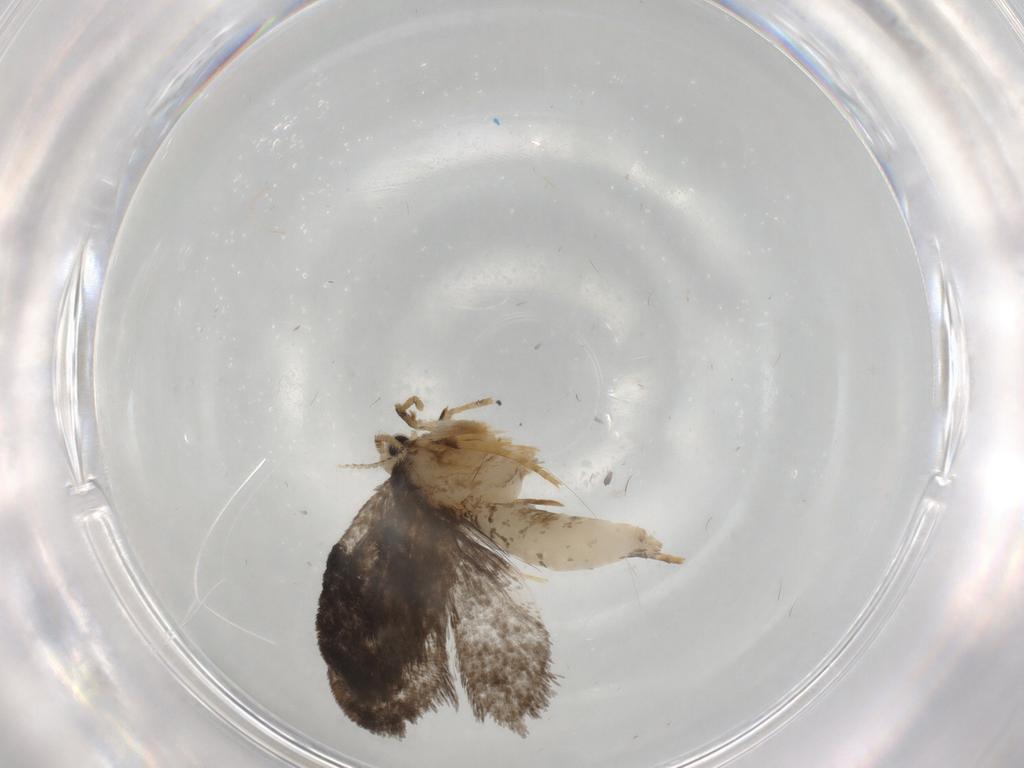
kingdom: Animalia
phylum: Arthropoda
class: Insecta
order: Lepidoptera
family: Psychidae
